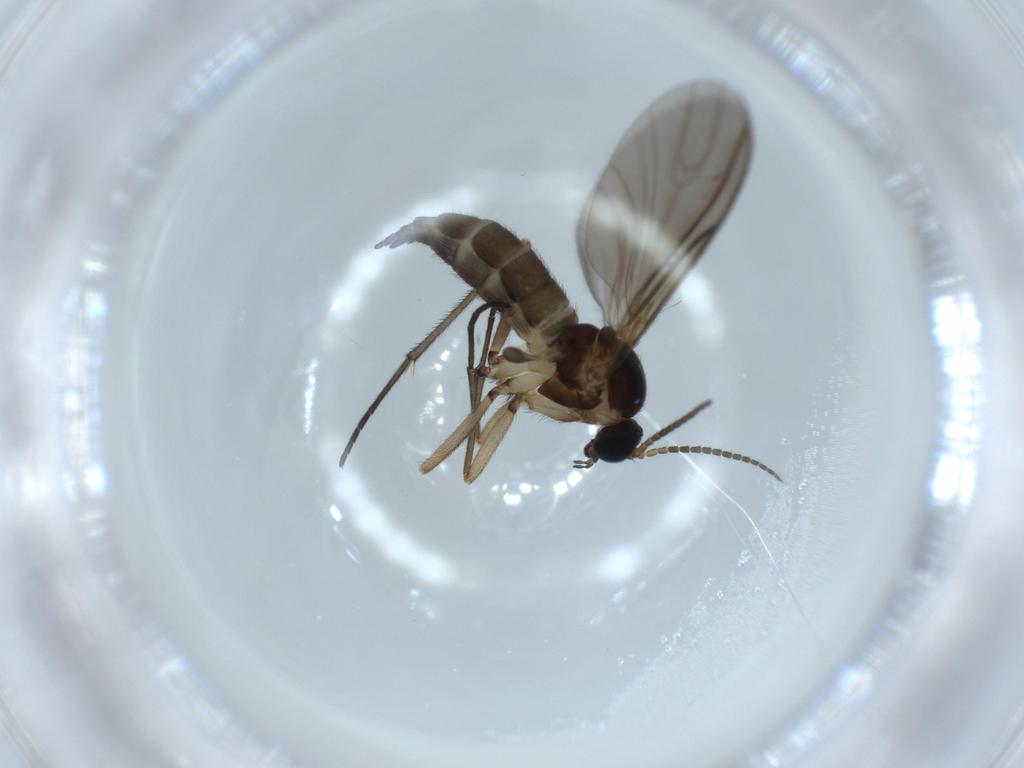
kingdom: Animalia
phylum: Arthropoda
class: Insecta
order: Diptera
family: Sciaridae
